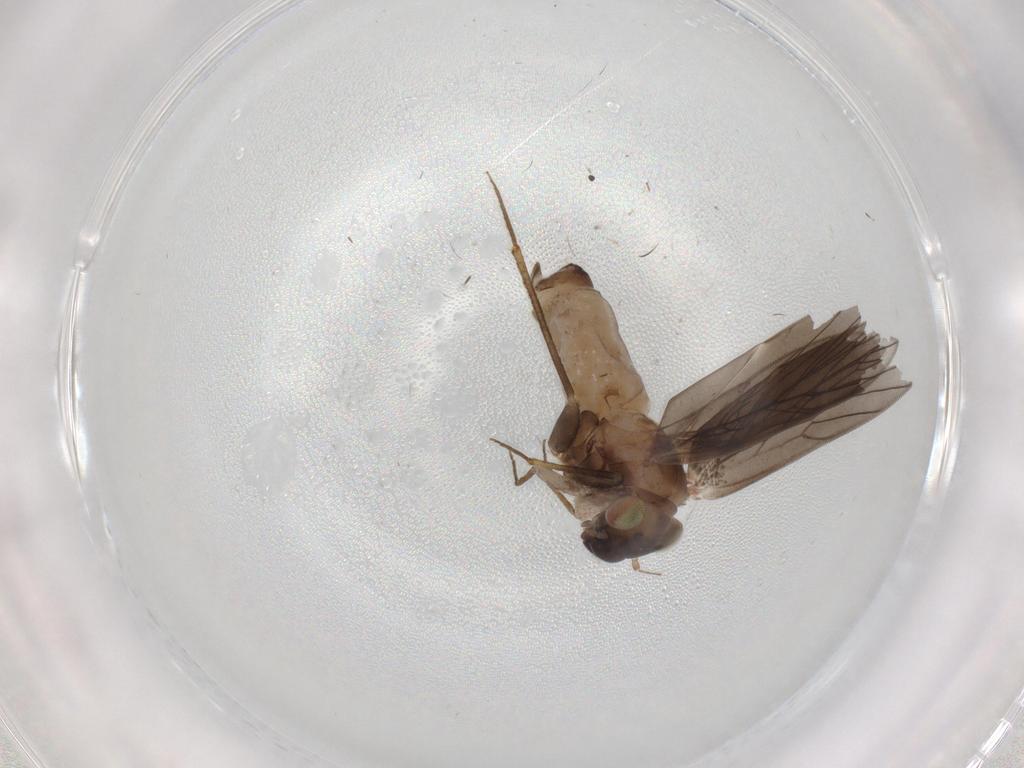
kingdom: Animalia
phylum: Arthropoda
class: Insecta
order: Psocodea
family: Lepidopsocidae
